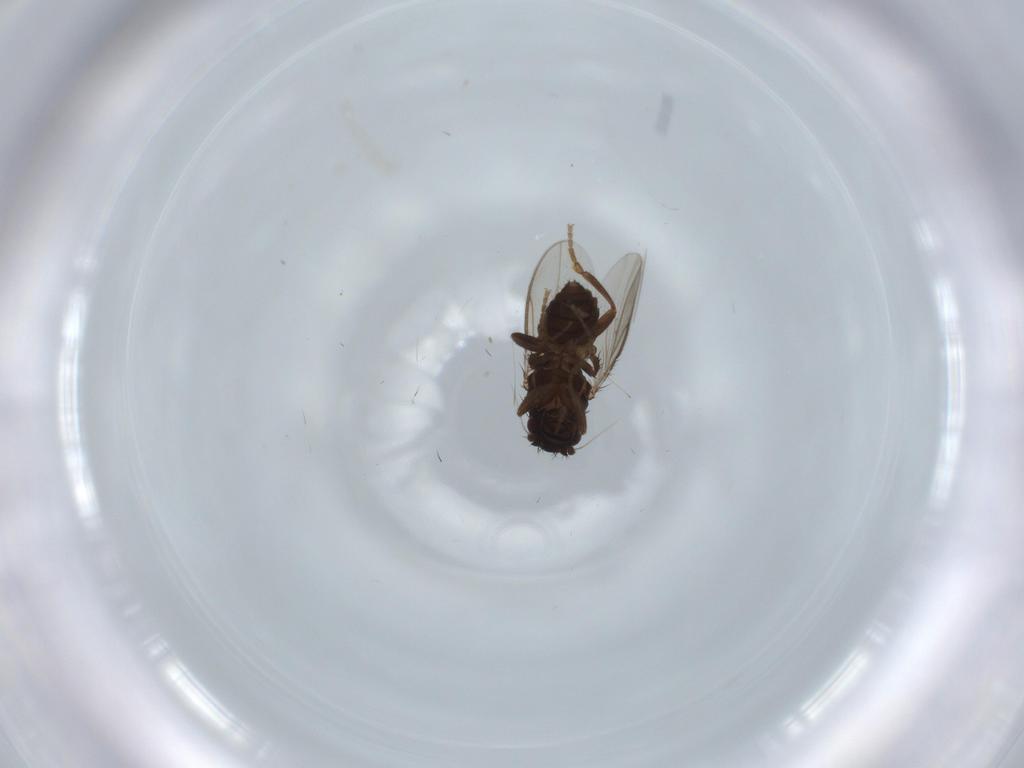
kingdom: Animalia
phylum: Arthropoda
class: Insecta
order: Diptera
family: Sphaeroceridae
